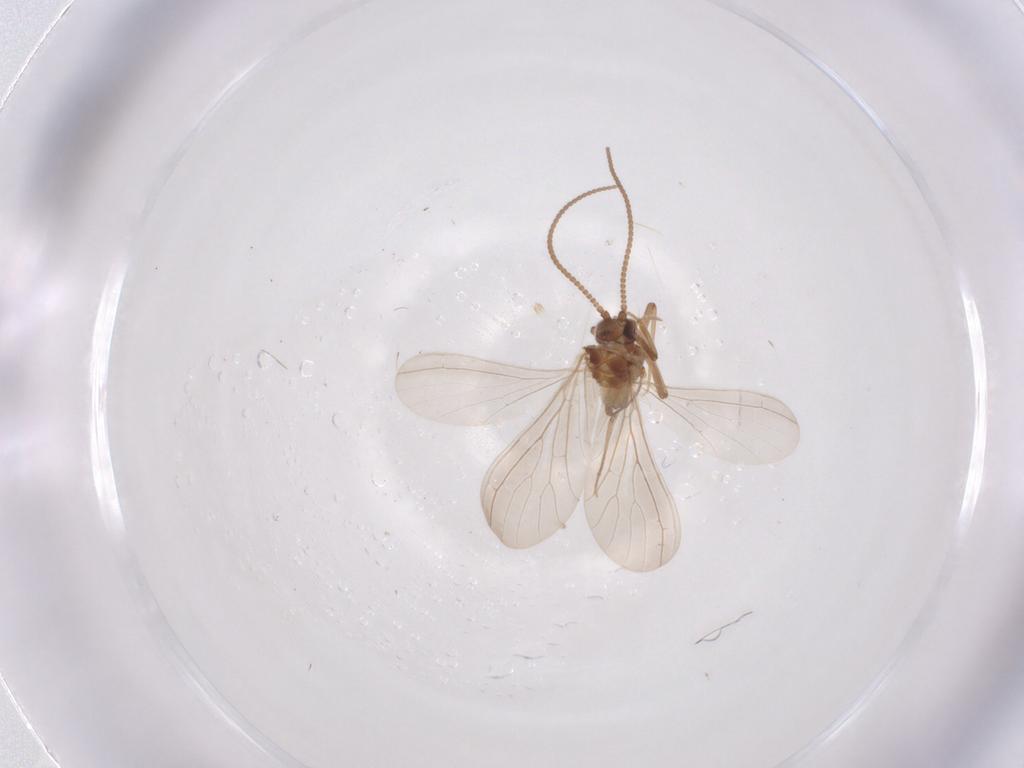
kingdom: Animalia
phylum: Arthropoda
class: Insecta
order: Neuroptera
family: Coniopterygidae
